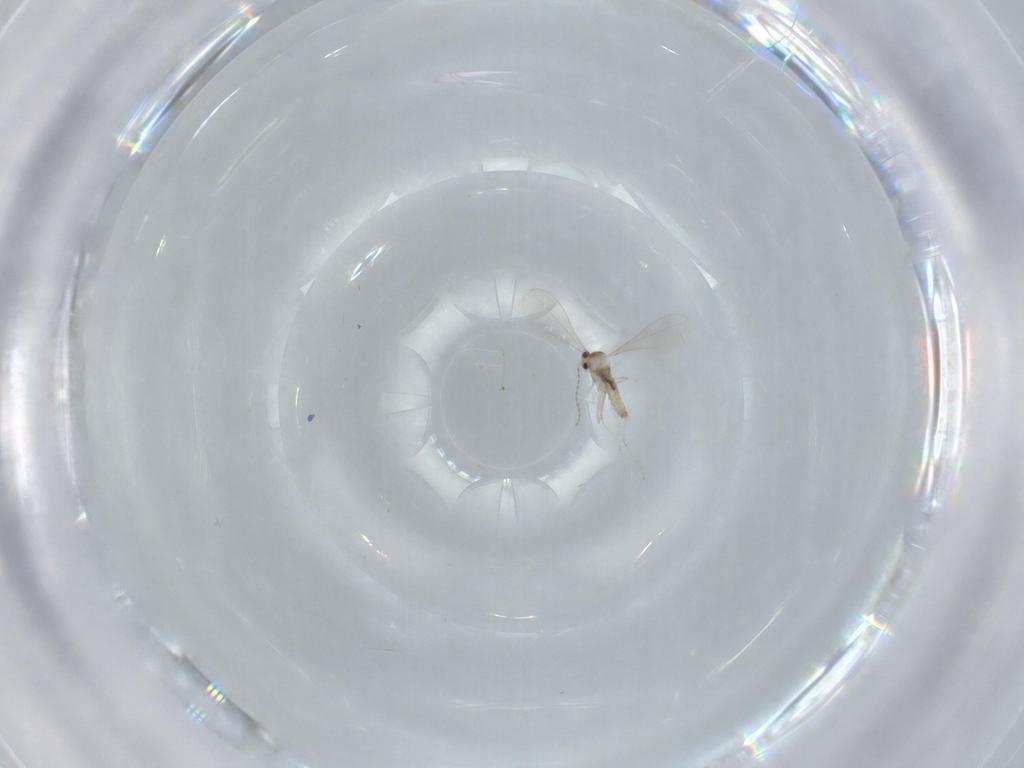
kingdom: Animalia
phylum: Arthropoda
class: Insecta
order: Diptera
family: Cecidomyiidae
